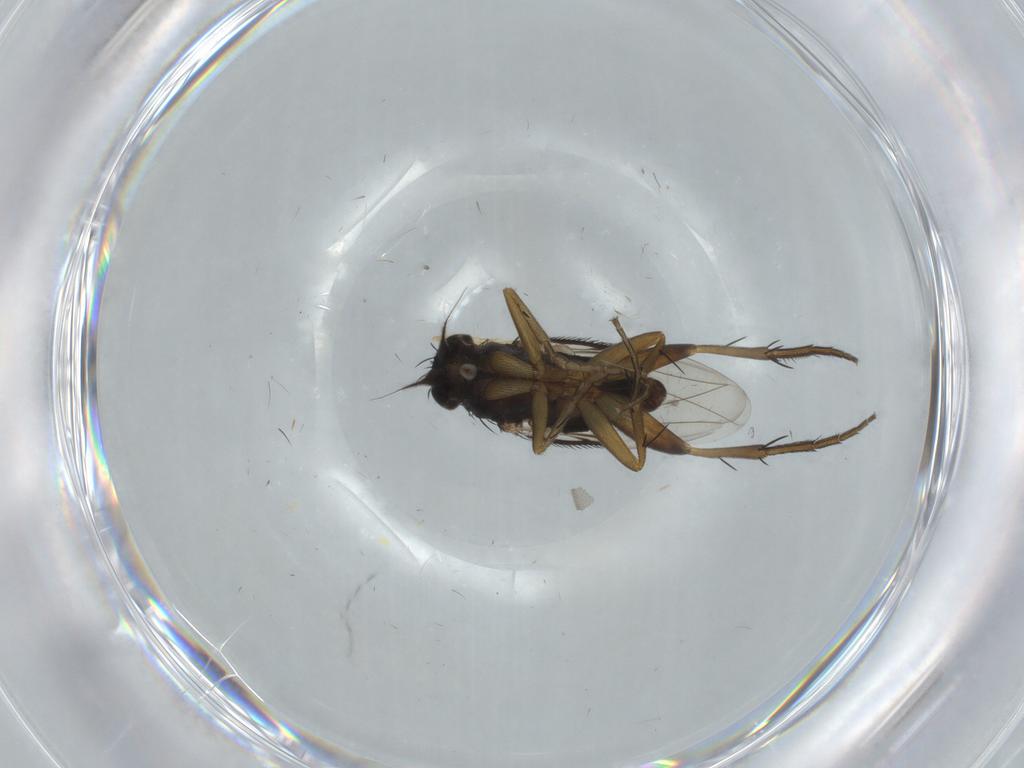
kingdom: Animalia
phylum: Arthropoda
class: Insecta
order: Diptera
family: Phoridae
